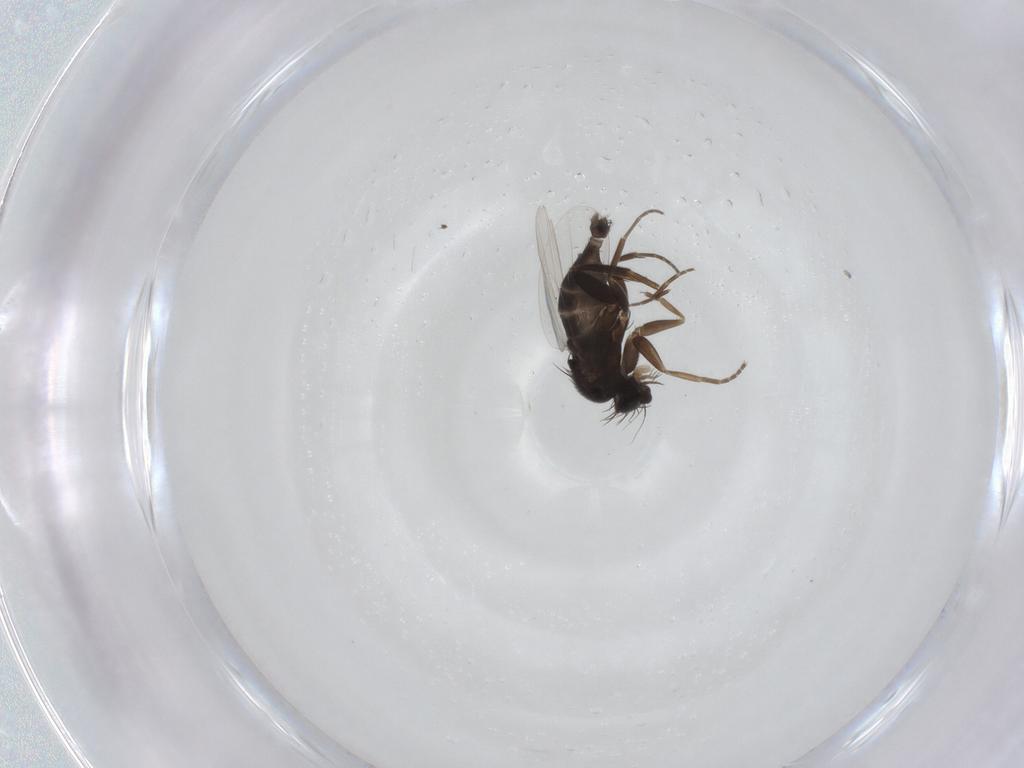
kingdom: Animalia
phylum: Arthropoda
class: Insecta
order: Diptera
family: Phoridae
